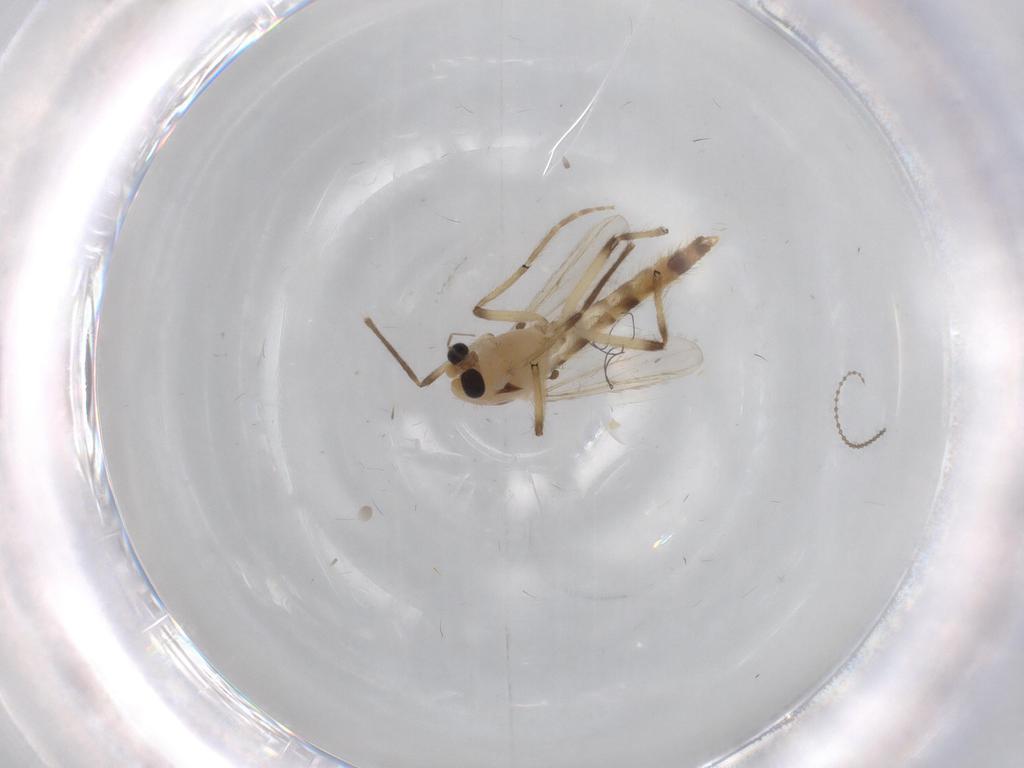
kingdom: Animalia
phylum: Arthropoda
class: Insecta
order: Diptera
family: Chironomidae
